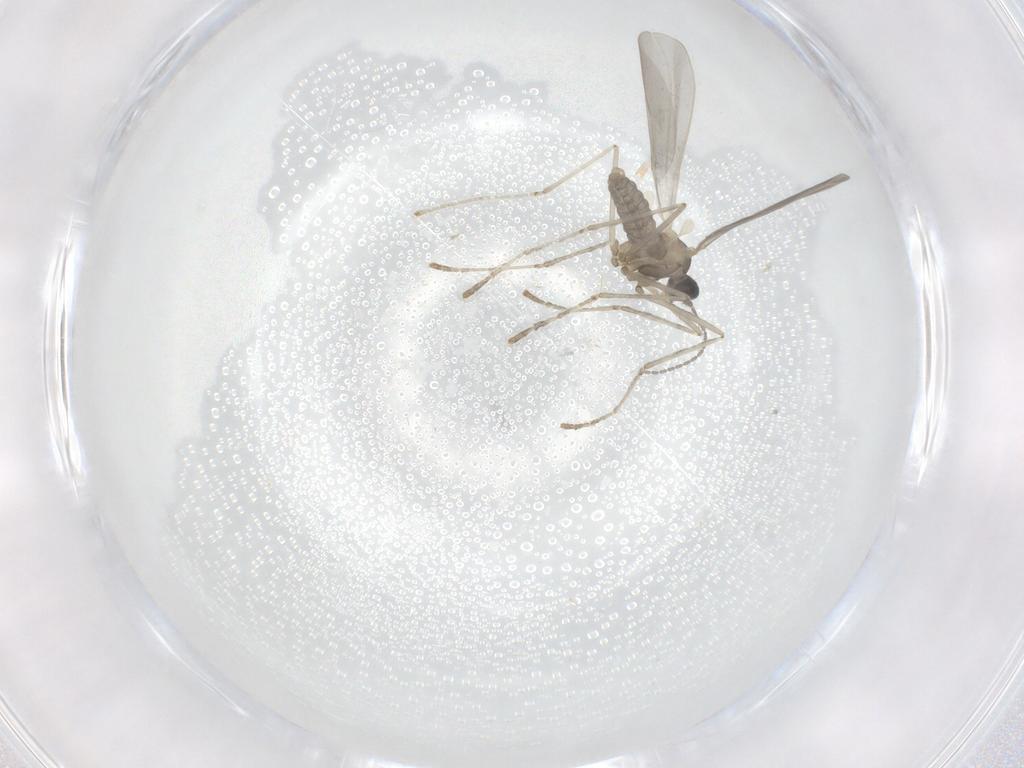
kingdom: Animalia
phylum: Arthropoda
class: Insecta
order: Diptera
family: Cecidomyiidae
